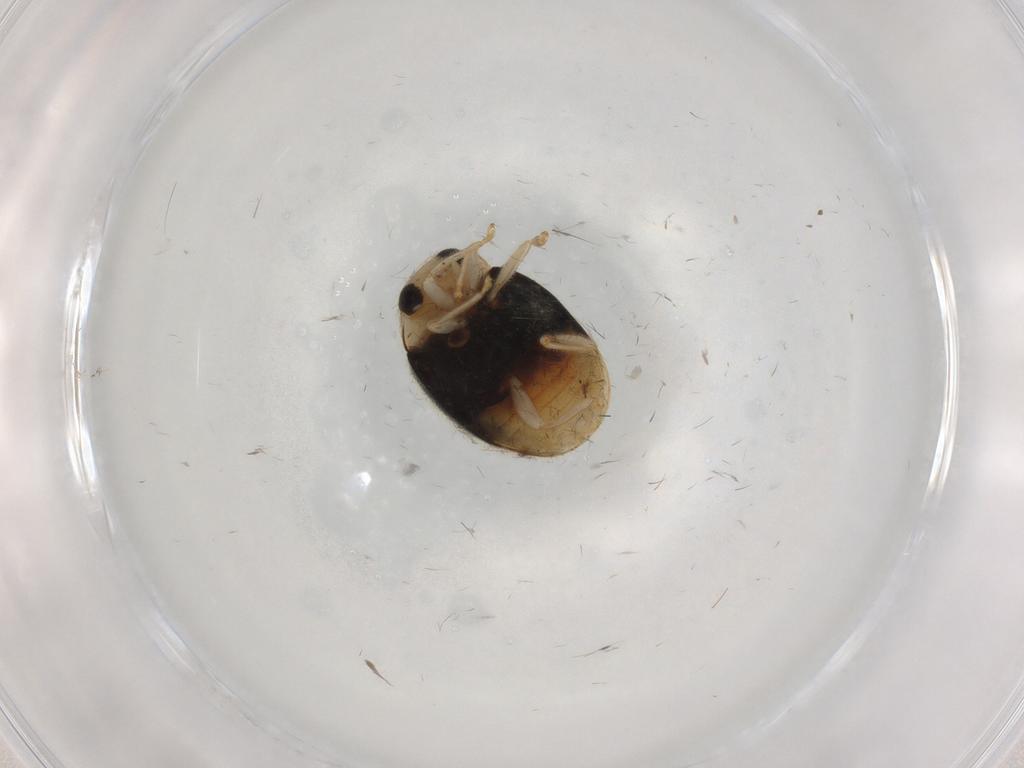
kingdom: Animalia
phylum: Arthropoda
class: Insecta
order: Coleoptera
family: Coccinellidae
